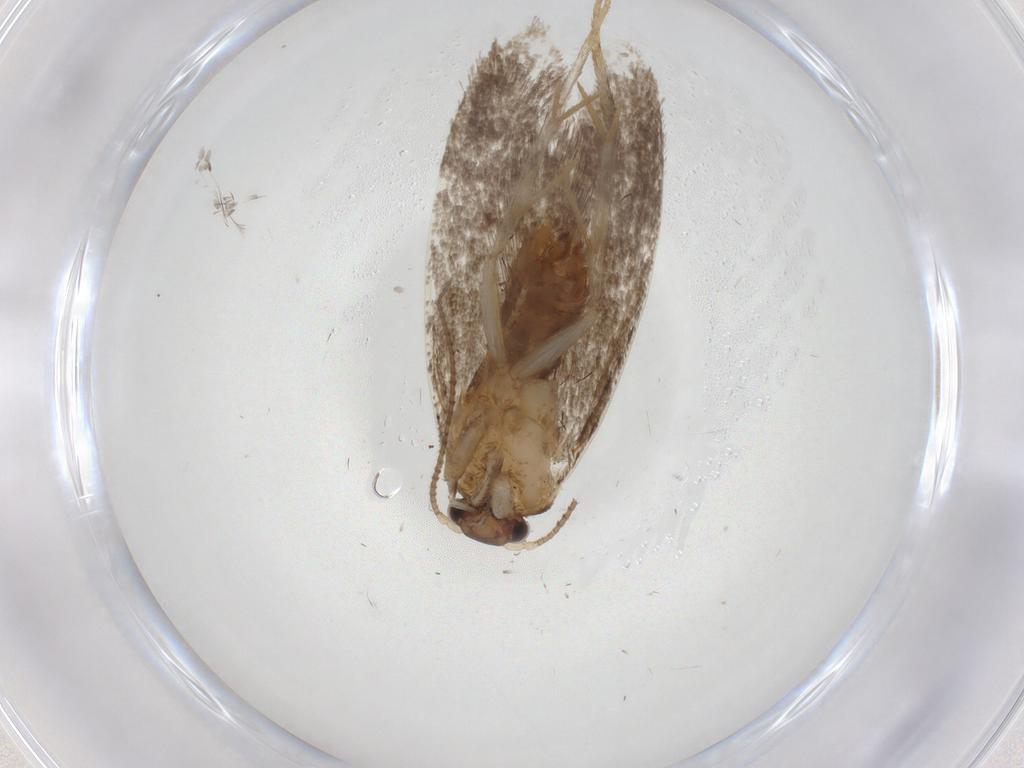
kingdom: Animalia
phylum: Arthropoda
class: Insecta
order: Lepidoptera
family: Dryadaulidae
